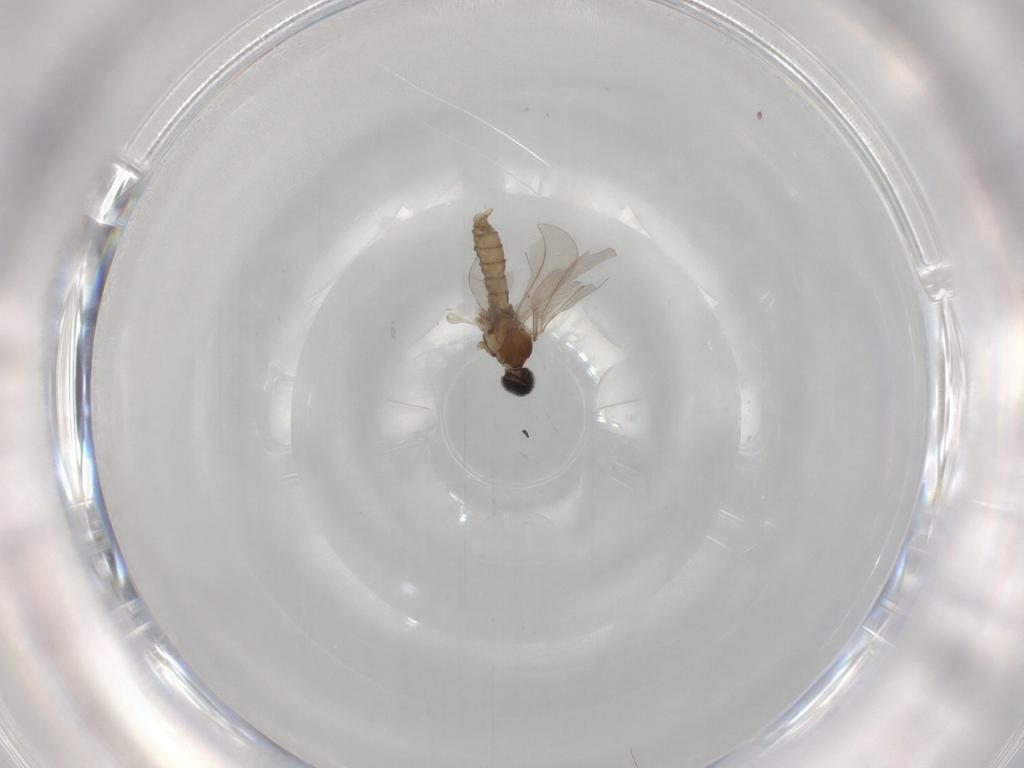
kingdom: Animalia
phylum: Arthropoda
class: Insecta
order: Diptera
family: Cecidomyiidae
